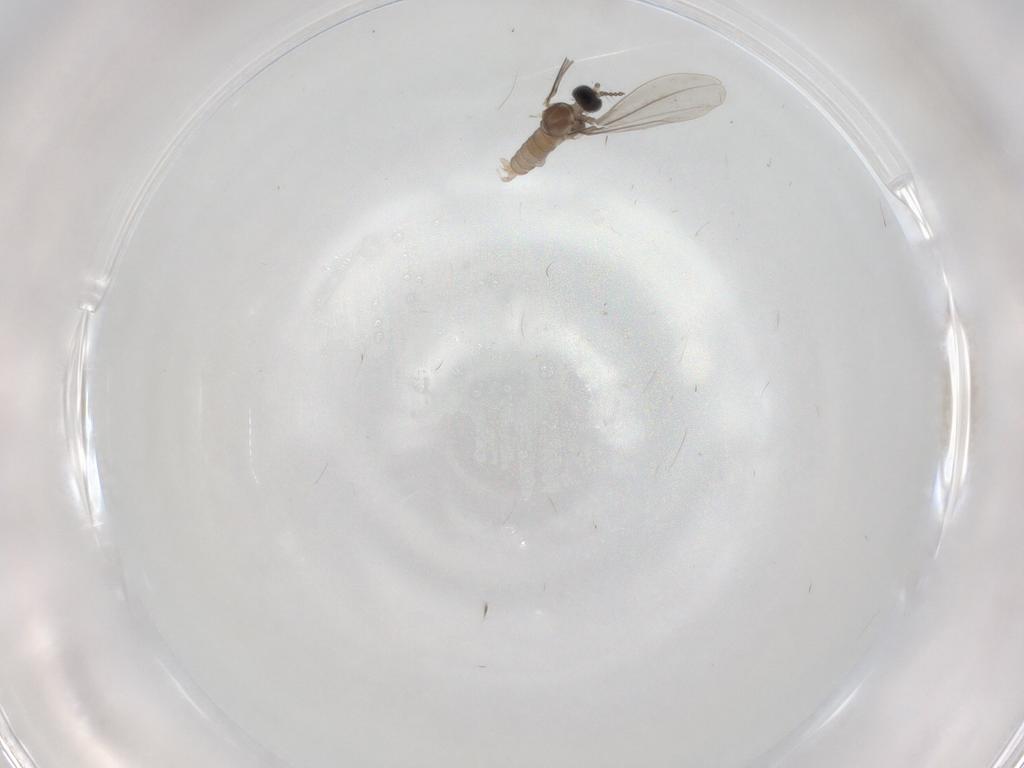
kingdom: Animalia
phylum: Arthropoda
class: Insecta
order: Diptera
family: Cecidomyiidae
